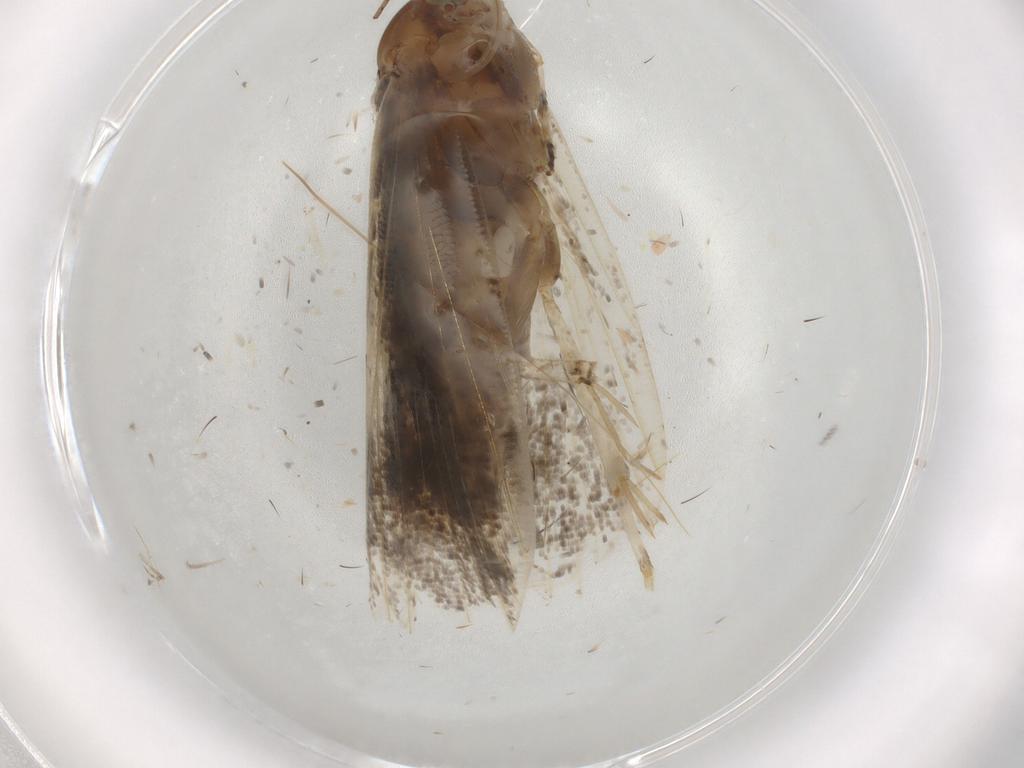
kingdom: Animalia
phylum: Arthropoda
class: Insecta
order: Lepidoptera
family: Choreutidae
